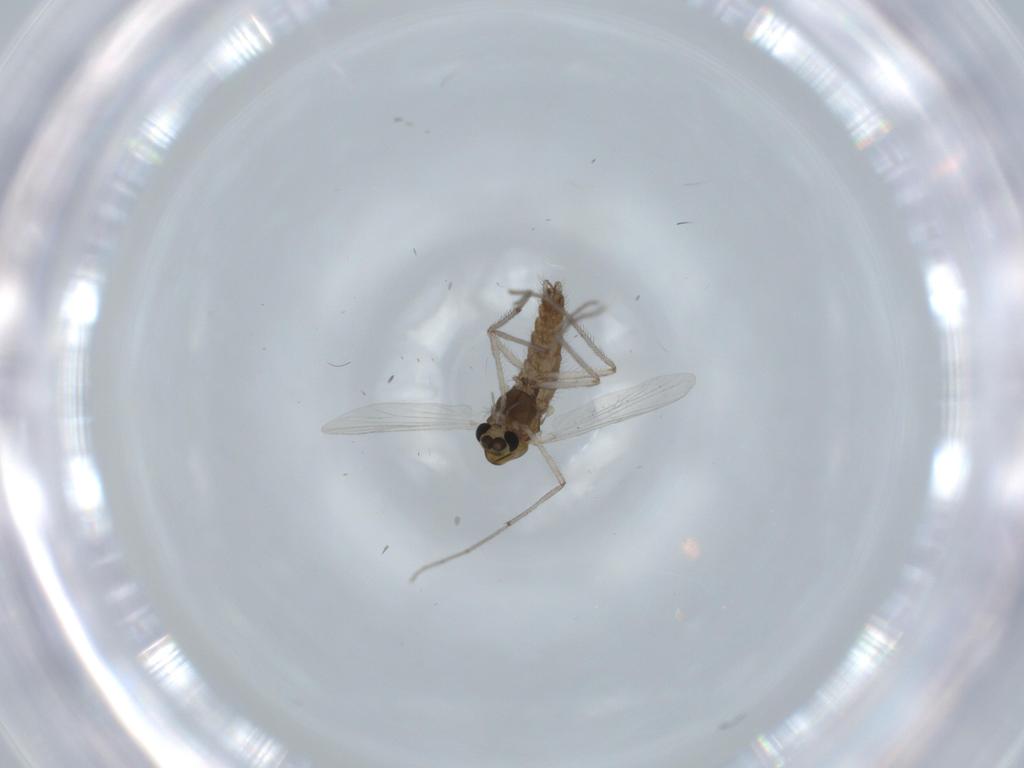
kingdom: Animalia
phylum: Arthropoda
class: Insecta
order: Diptera
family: Chironomidae
